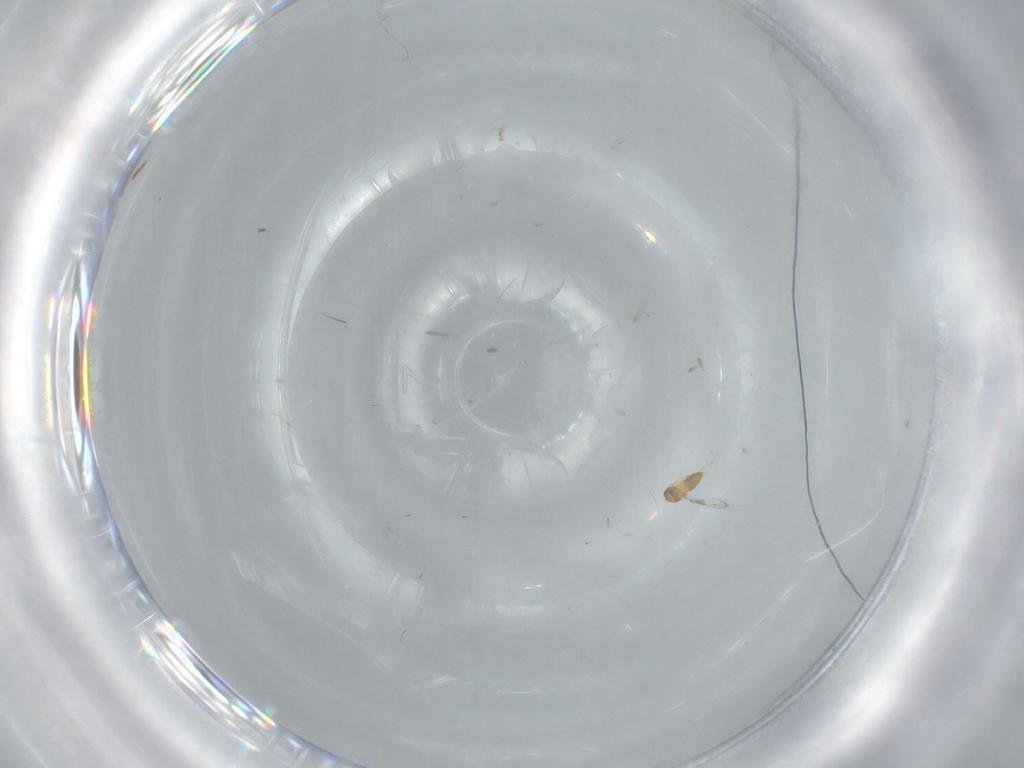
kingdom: Animalia
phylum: Arthropoda
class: Insecta
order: Hymenoptera
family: Trichogrammatidae
